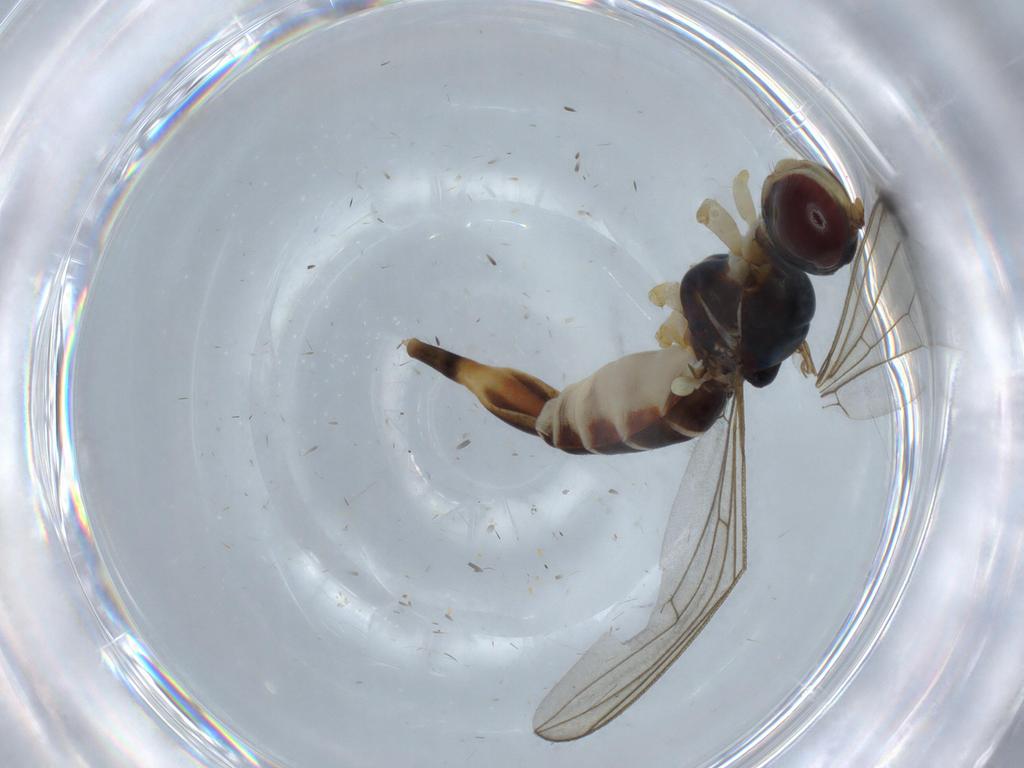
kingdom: Animalia
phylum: Arthropoda
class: Insecta
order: Diptera
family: Micropezidae
